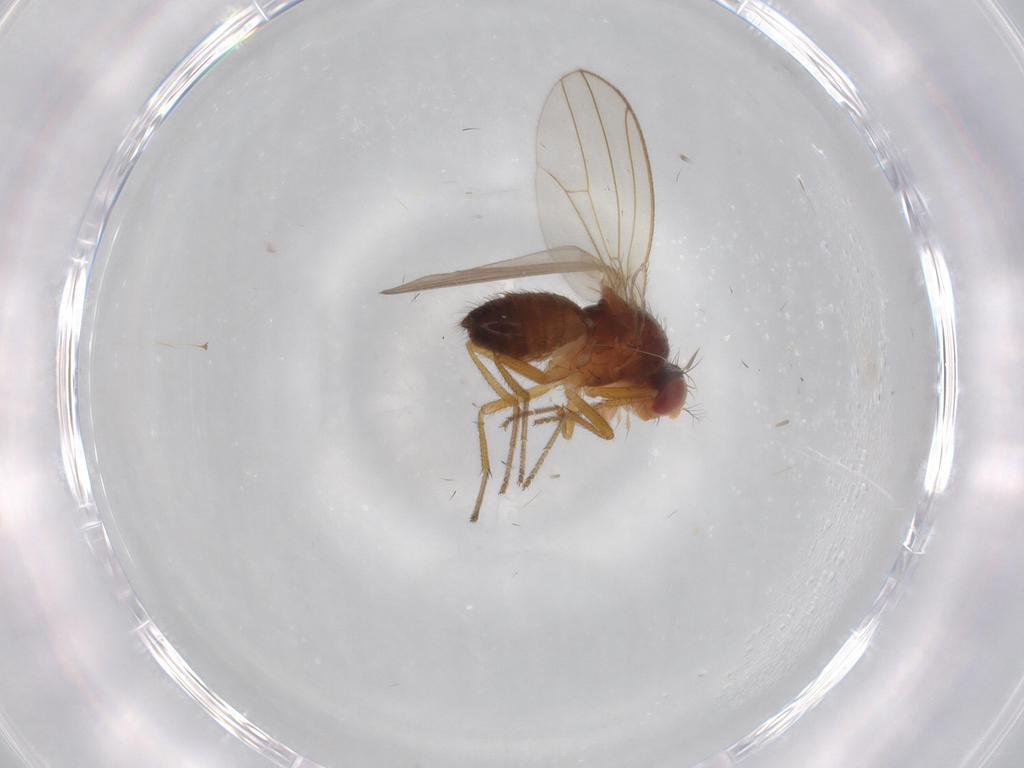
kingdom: Animalia
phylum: Arthropoda
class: Insecta
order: Diptera
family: Drosophilidae
